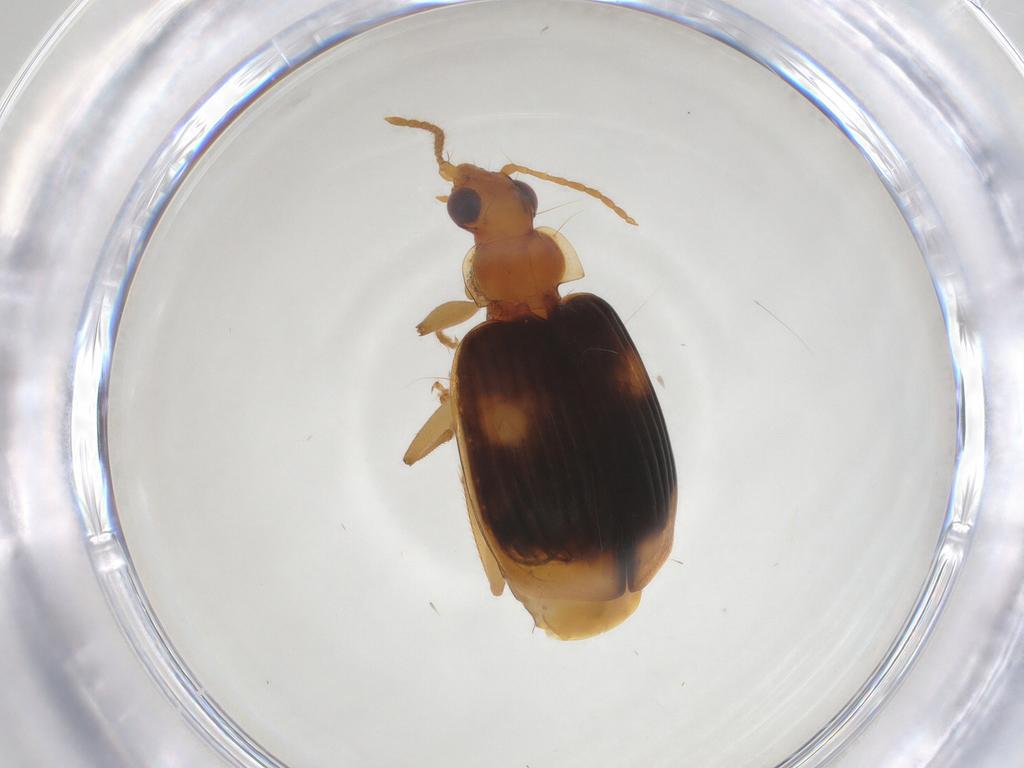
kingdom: Animalia
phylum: Arthropoda
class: Insecta
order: Coleoptera
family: Carabidae
